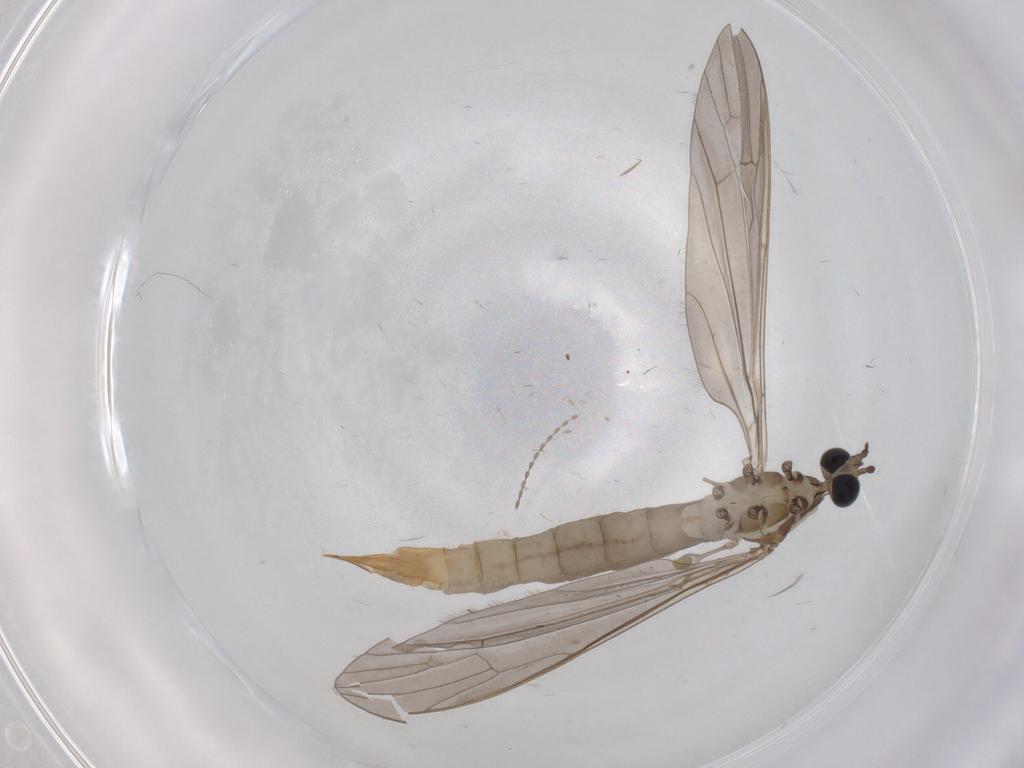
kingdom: Animalia
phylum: Arthropoda
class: Insecta
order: Diptera
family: Limoniidae
